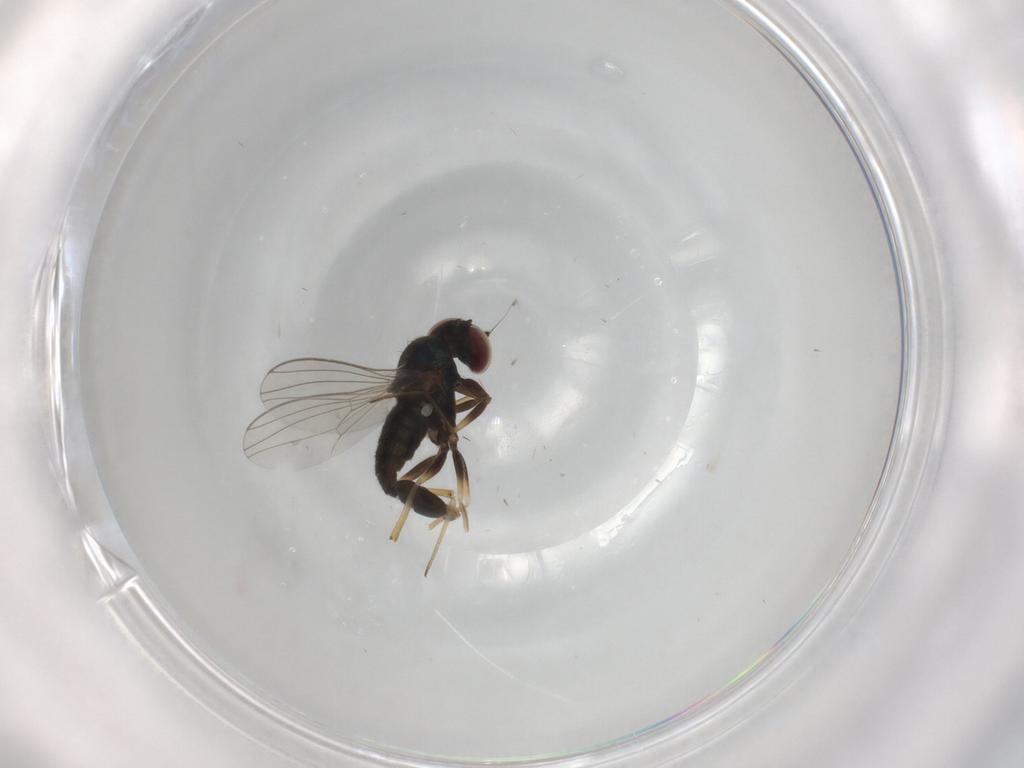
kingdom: Animalia
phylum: Arthropoda
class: Insecta
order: Diptera
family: Dolichopodidae
